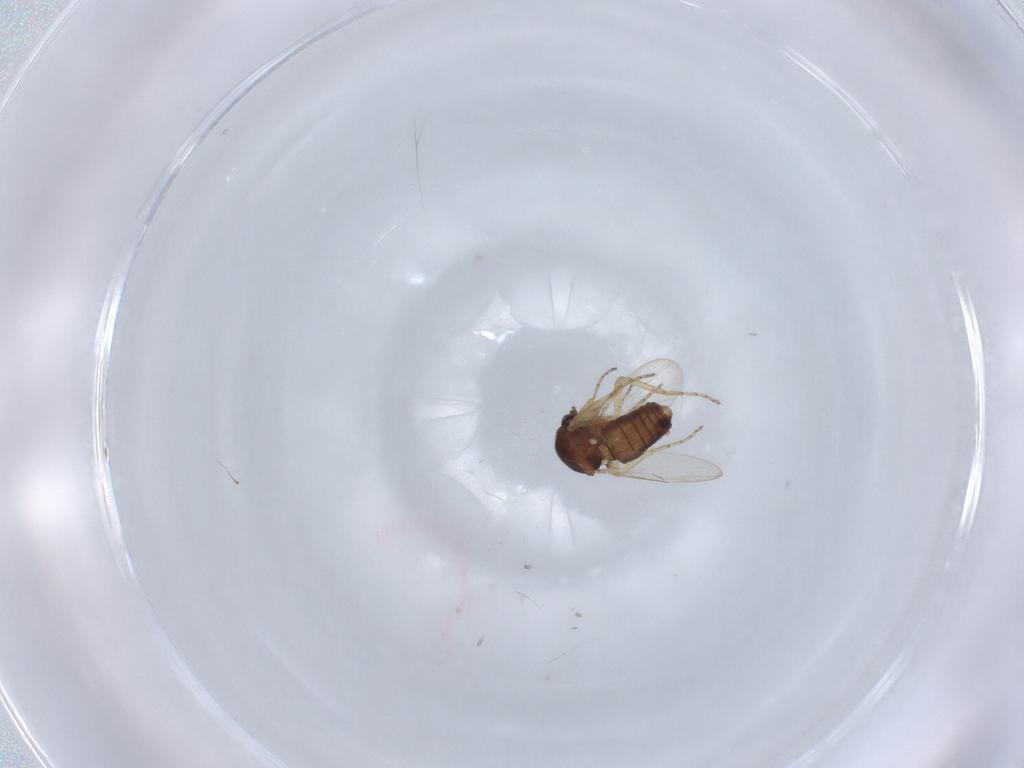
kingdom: Animalia
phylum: Arthropoda
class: Insecta
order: Diptera
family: Ceratopogonidae
